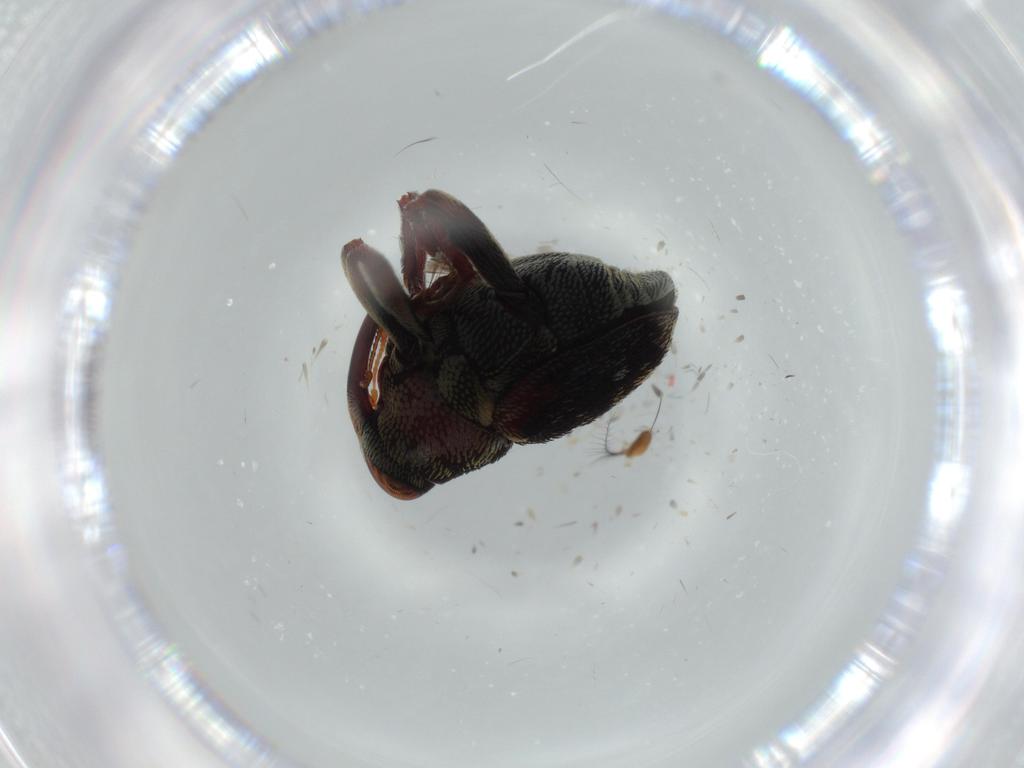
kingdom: Animalia
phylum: Arthropoda
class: Insecta
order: Coleoptera
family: Curculionidae
